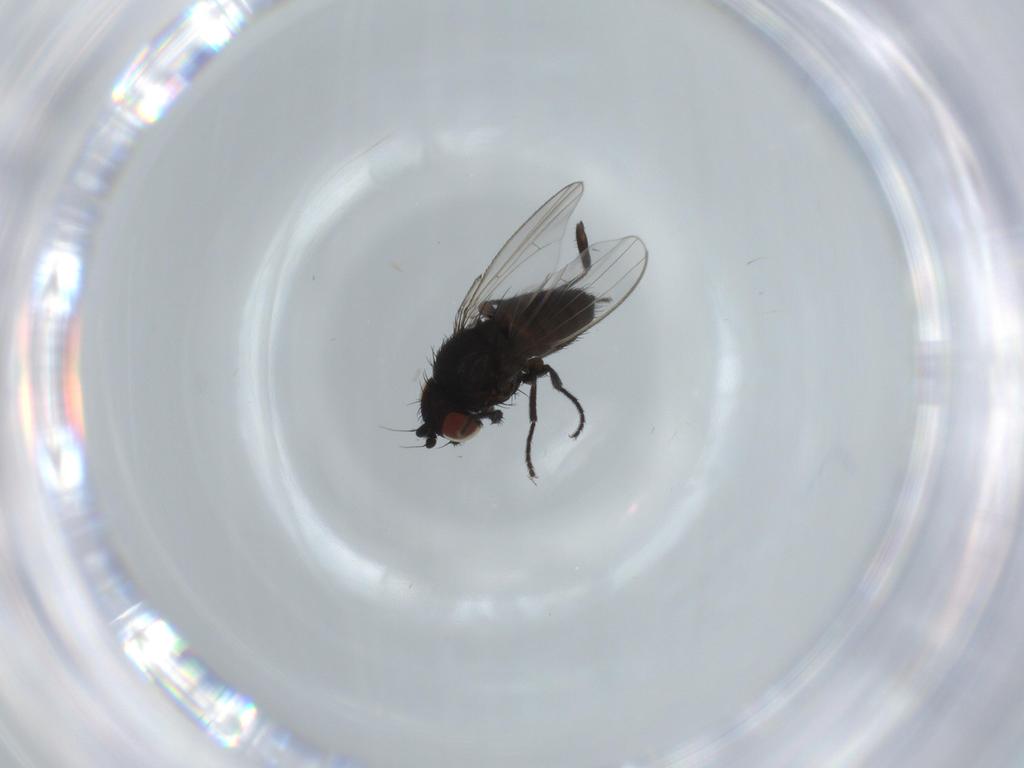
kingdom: Animalia
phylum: Arthropoda
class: Insecta
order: Diptera
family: Milichiidae
